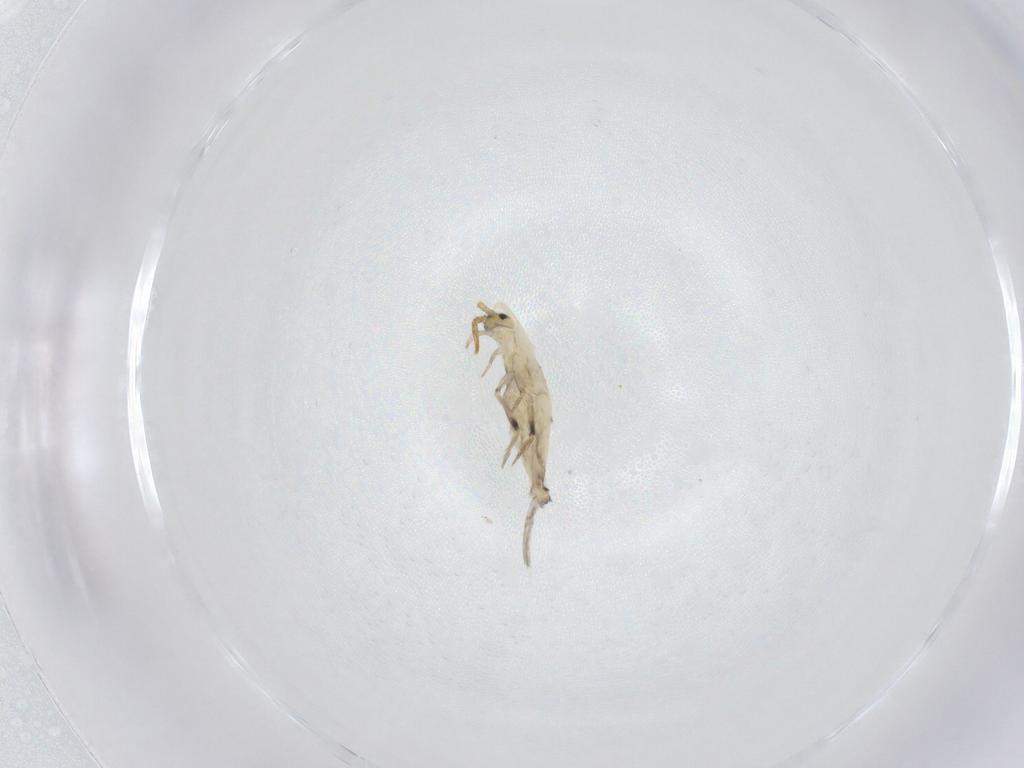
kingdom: Animalia
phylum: Arthropoda
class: Collembola
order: Entomobryomorpha
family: Entomobryidae
